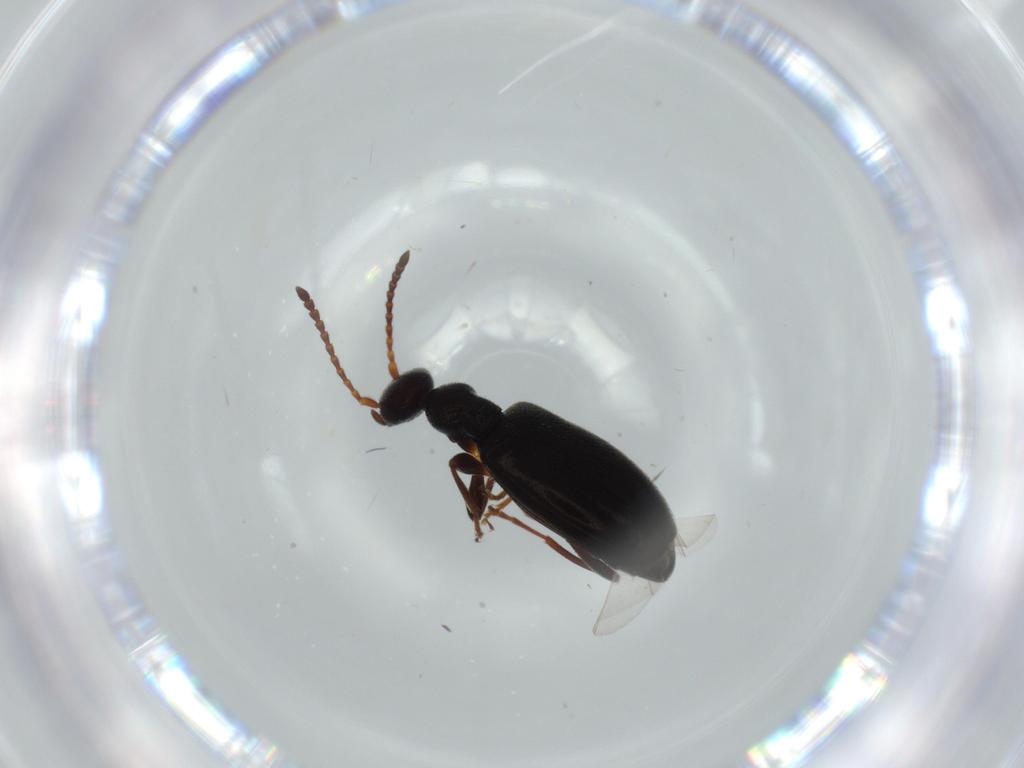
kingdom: Animalia
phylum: Arthropoda
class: Insecta
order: Coleoptera
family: Anthicidae
